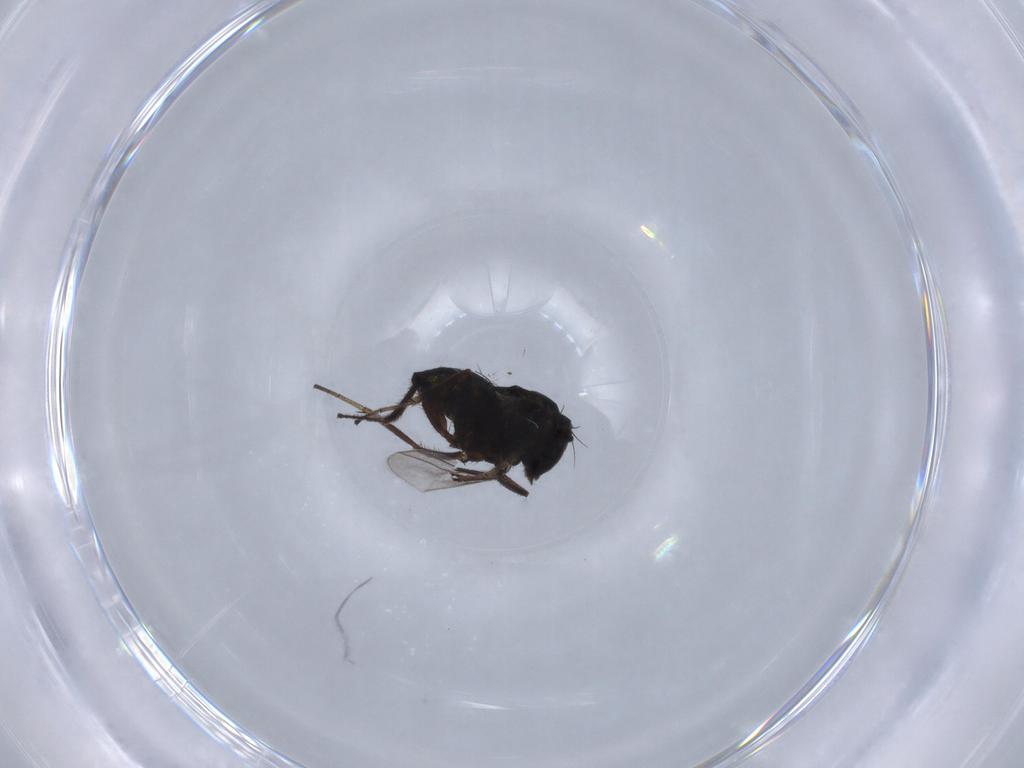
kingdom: Animalia
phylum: Arthropoda
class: Insecta
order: Diptera
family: Dolichopodidae
